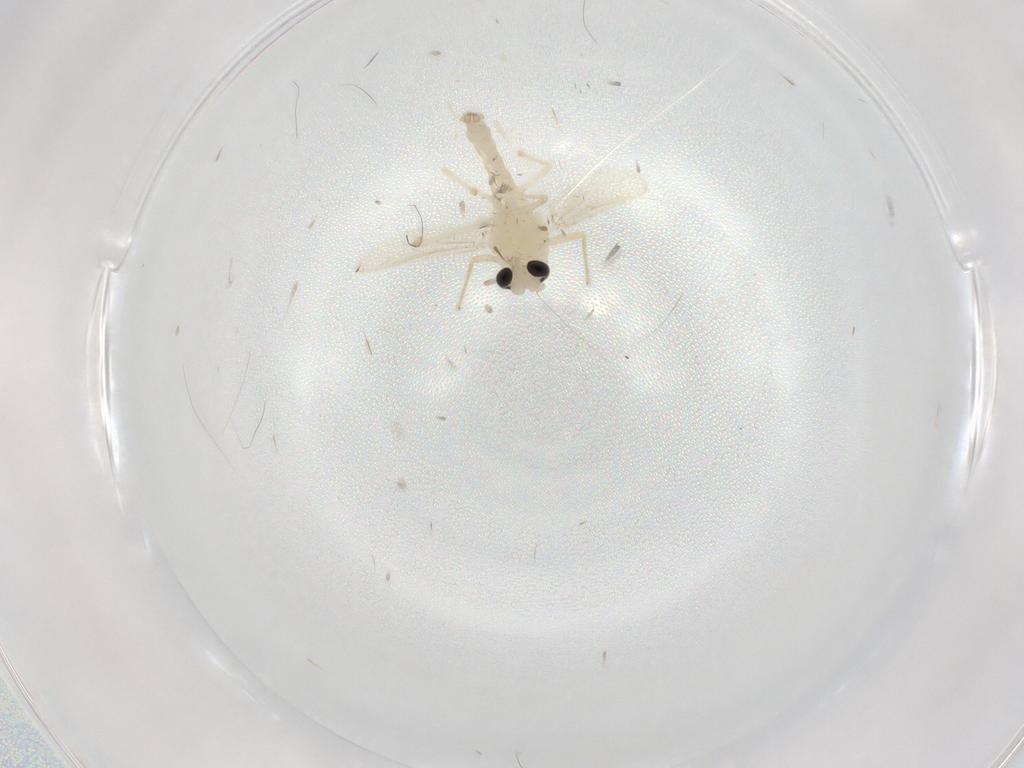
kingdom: Animalia
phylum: Arthropoda
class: Insecta
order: Diptera
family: Chironomidae
